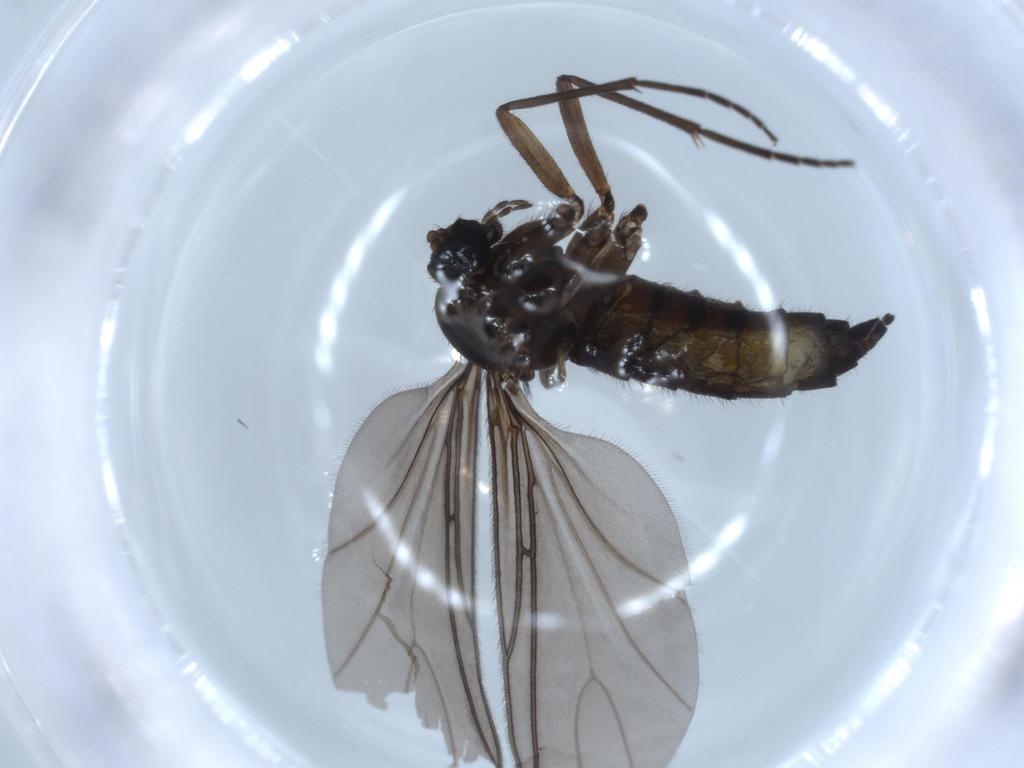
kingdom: Animalia
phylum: Arthropoda
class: Insecta
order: Diptera
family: Sciaridae
